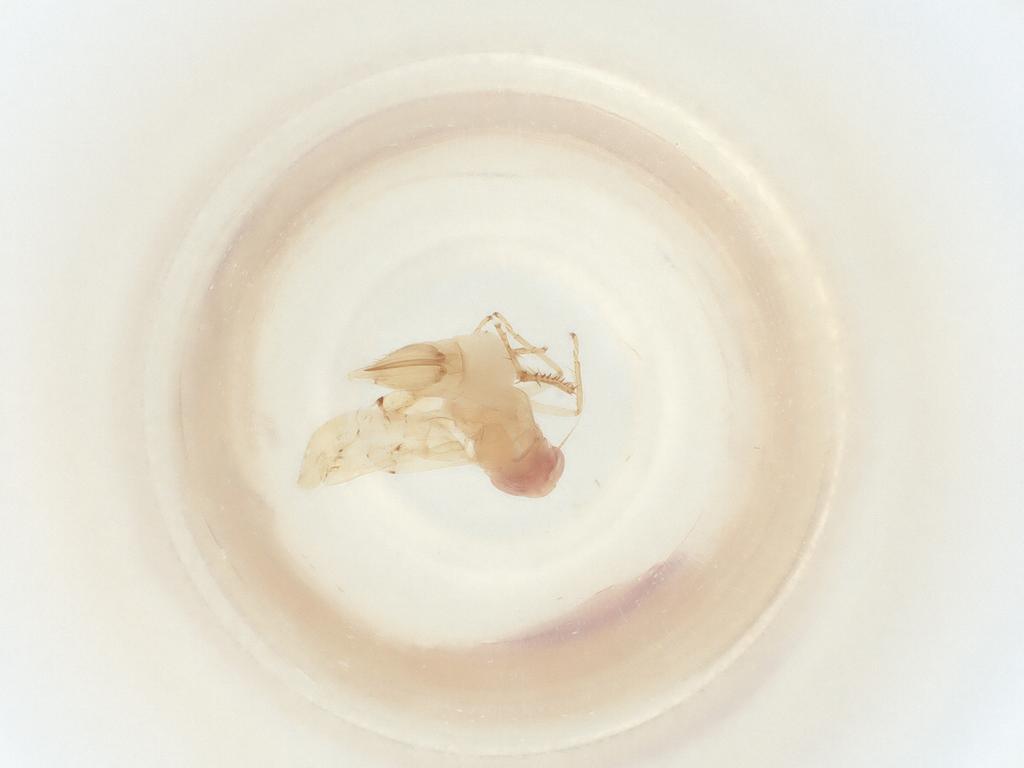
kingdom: Animalia
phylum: Arthropoda
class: Insecta
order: Hemiptera
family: Cicadellidae
